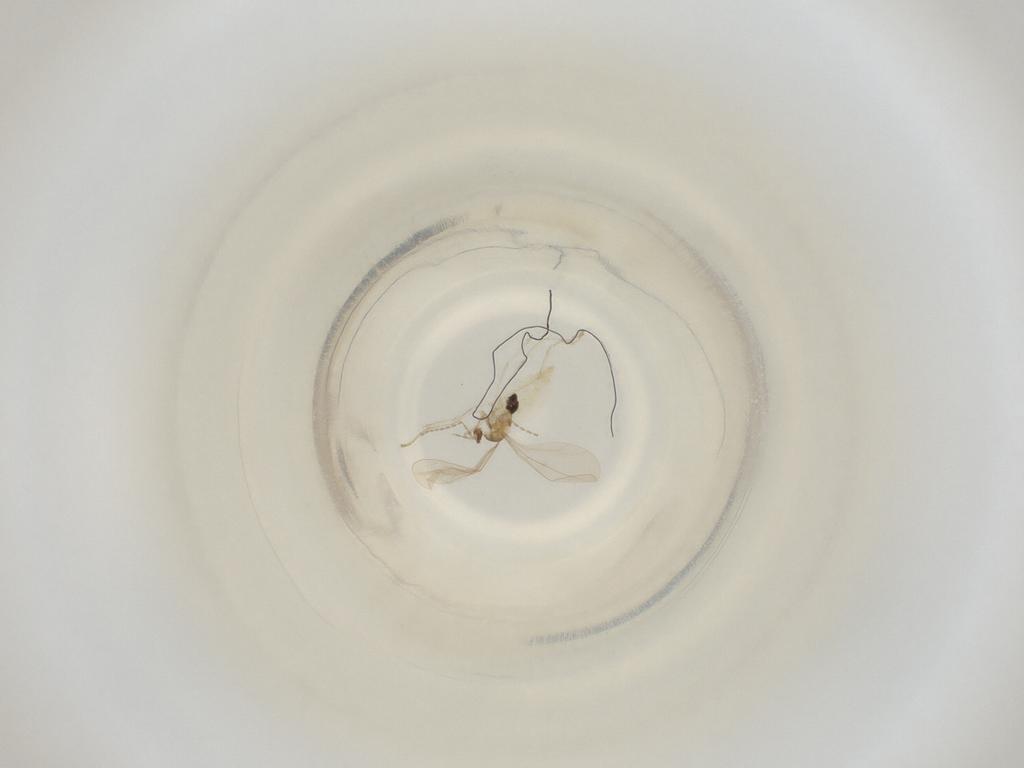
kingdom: Animalia
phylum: Arthropoda
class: Insecta
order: Diptera
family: Cecidomyiidae
